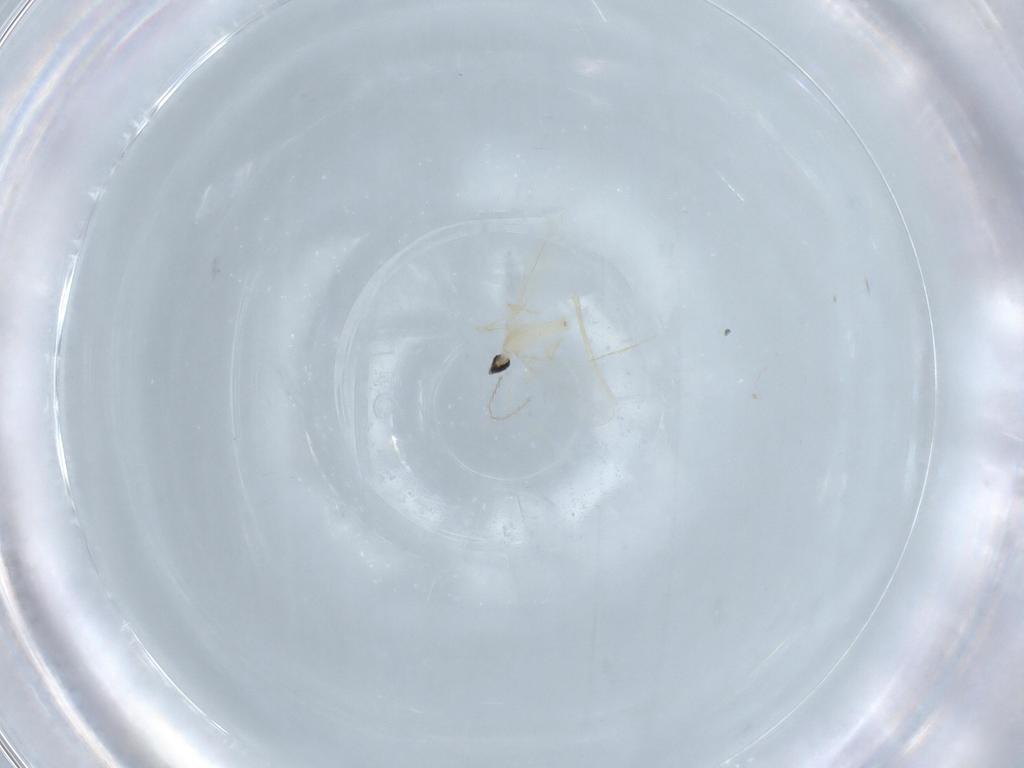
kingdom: Animalia
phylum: Arthropoda
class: Insecta
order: Diptera
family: Cecidomyiidae
